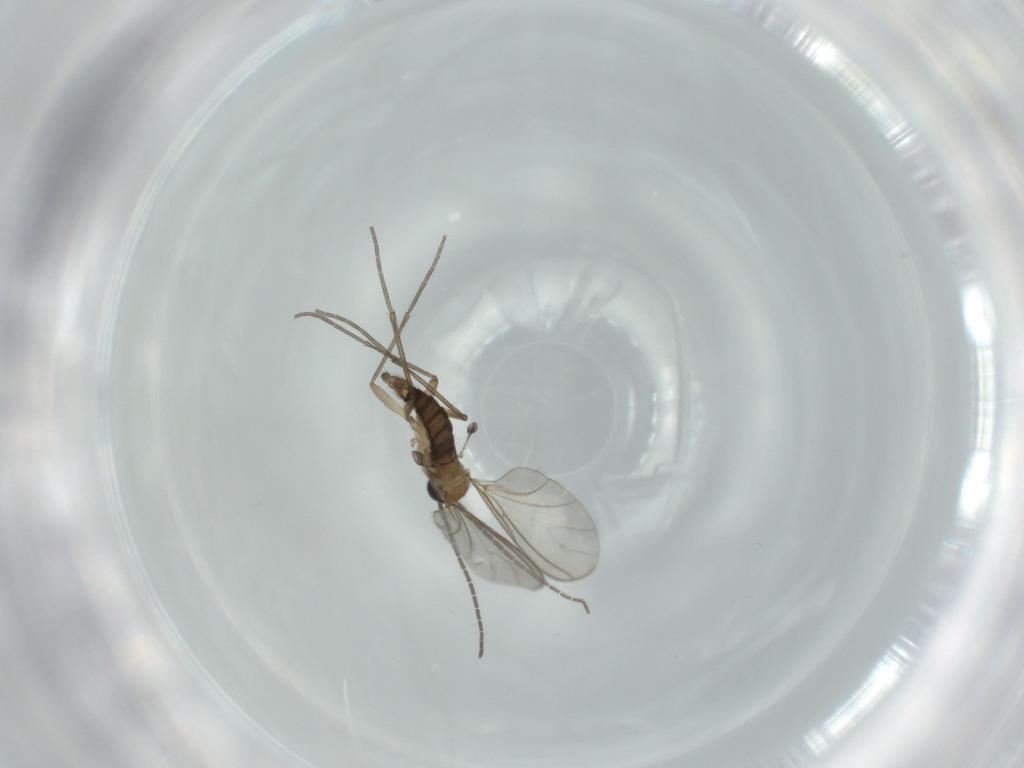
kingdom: Animalia
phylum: Arthropoda
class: Insecta
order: Diptera
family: Sciaridae
